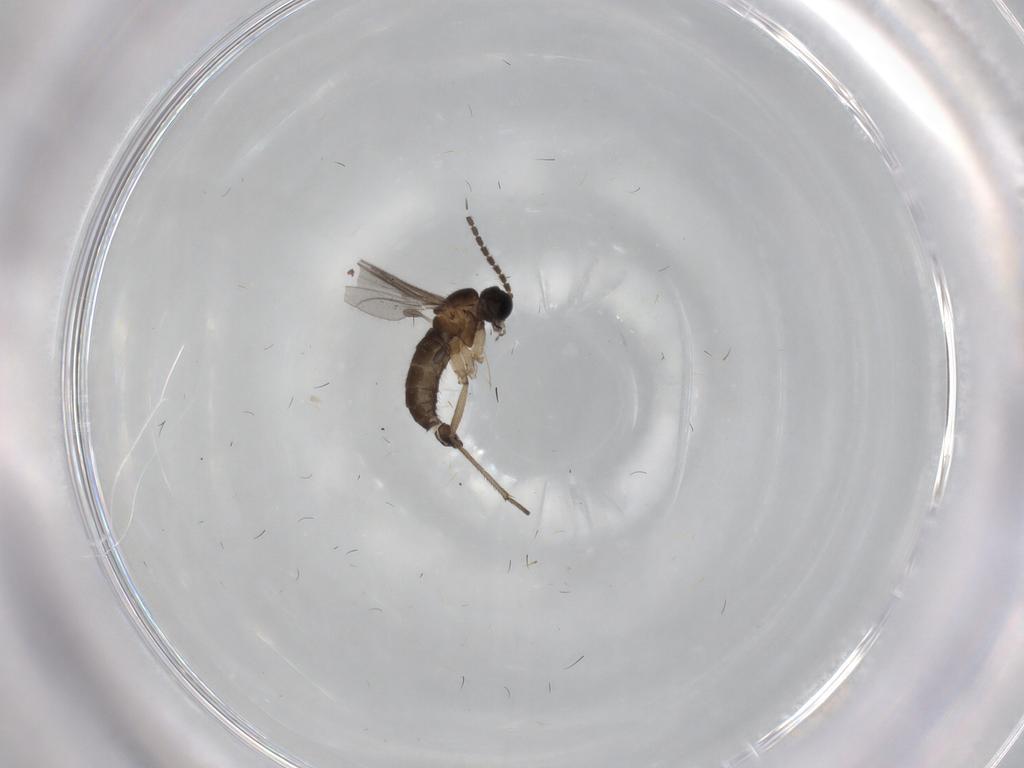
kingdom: Animalia
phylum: Arthropoda
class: Insecta
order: Diptera
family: Sciaridae
